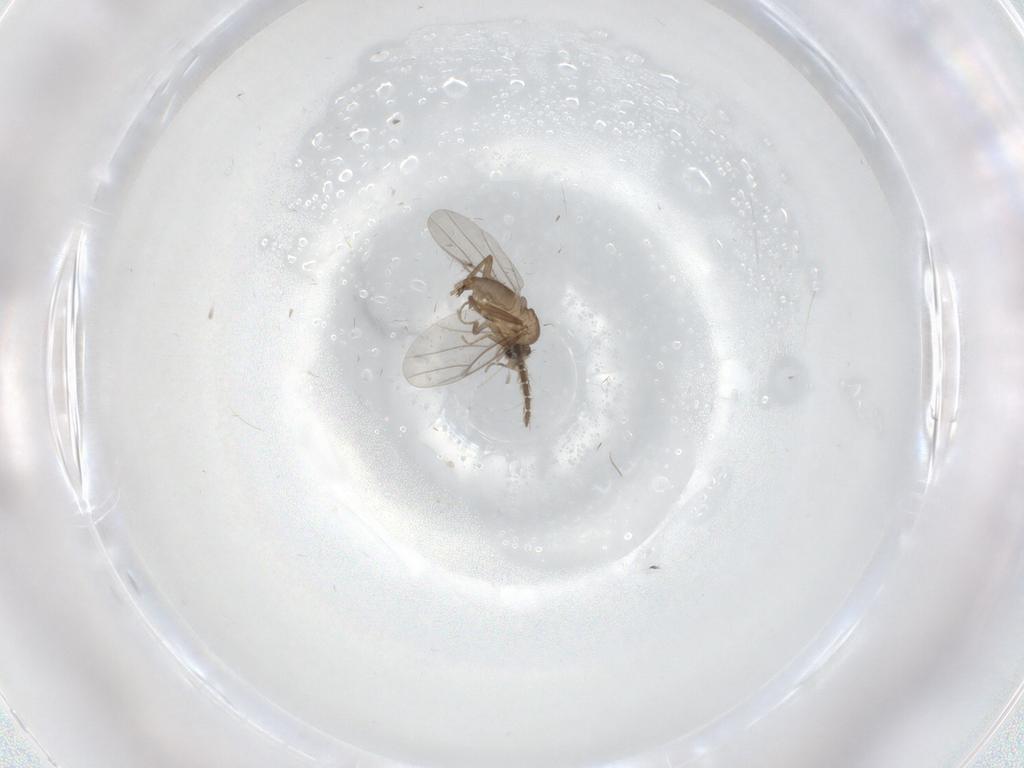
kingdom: Animalia
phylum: Arthropoda
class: Insecta
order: Diptera
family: Cecidomyiidae
